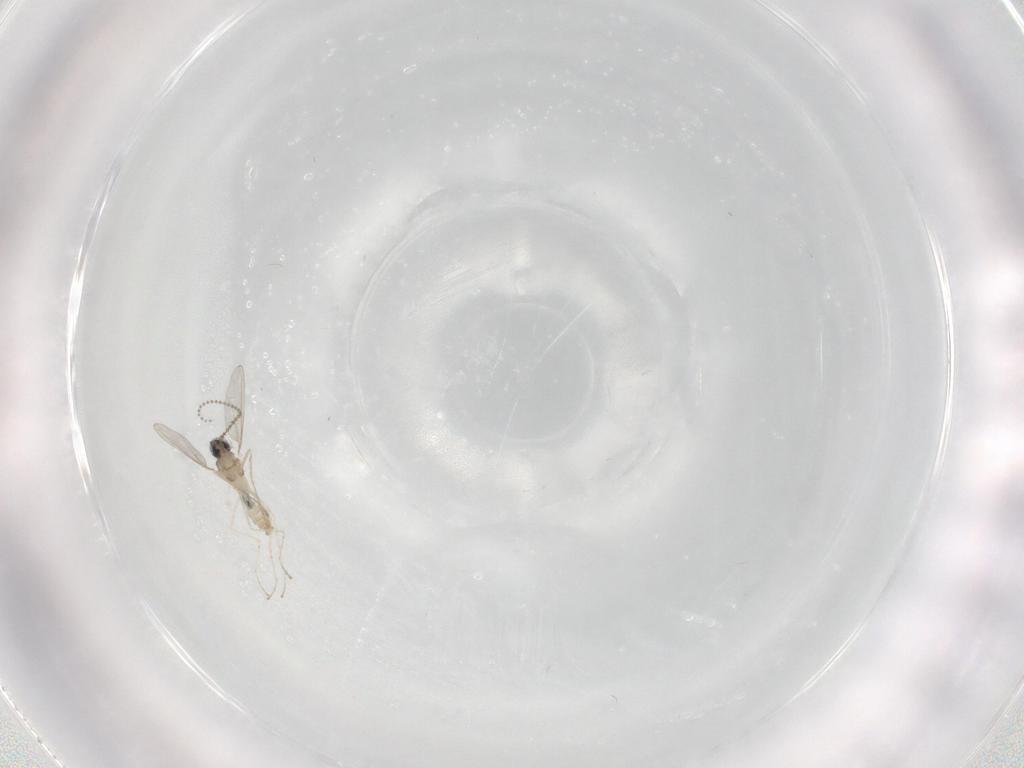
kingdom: Animalia
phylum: Arthropoda
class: Insecta
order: Diptera
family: Cecidomyiidae
